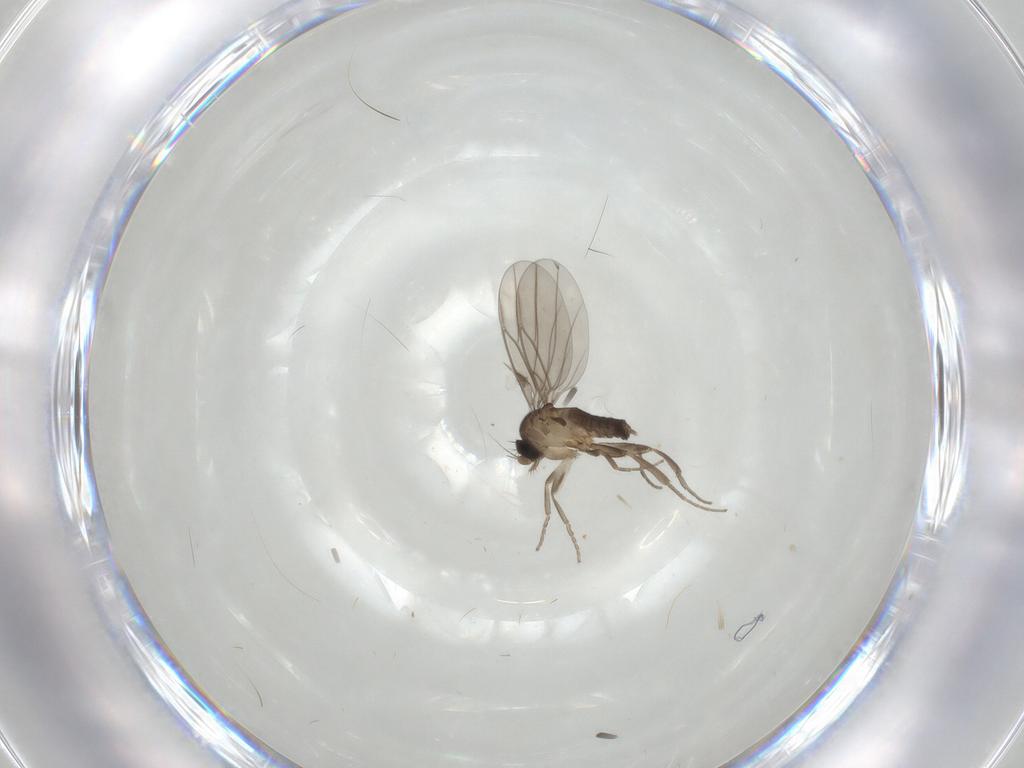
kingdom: Animalia
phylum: Arthropoda
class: Insecta
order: Diptera
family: Phoridae
